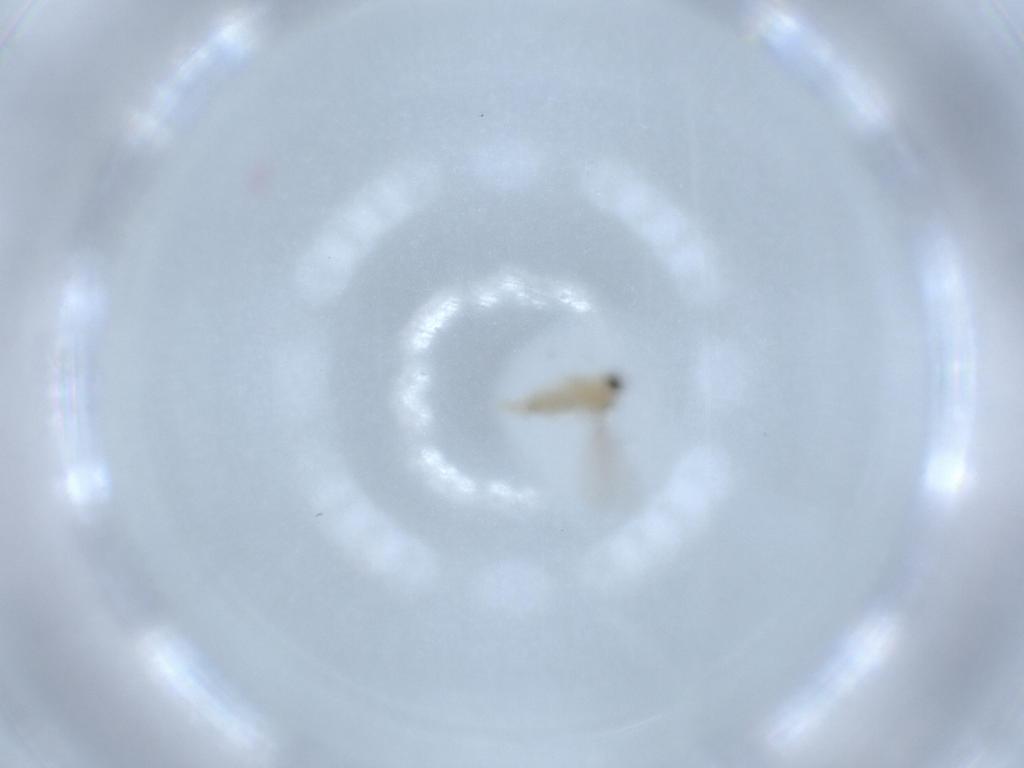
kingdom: Animalia
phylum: Arthropoda
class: Insecta
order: Diptera
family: Cecidomyiidae
